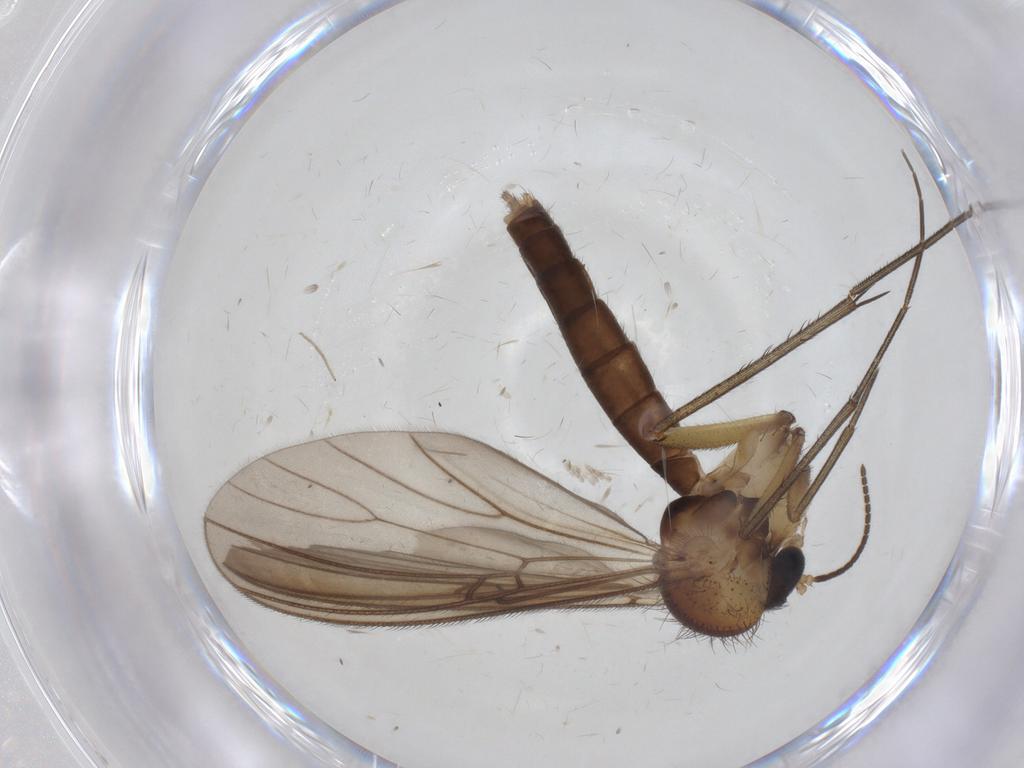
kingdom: Animalia
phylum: Arthropoda
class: Insecta
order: Diptera
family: Mycetophilidae
